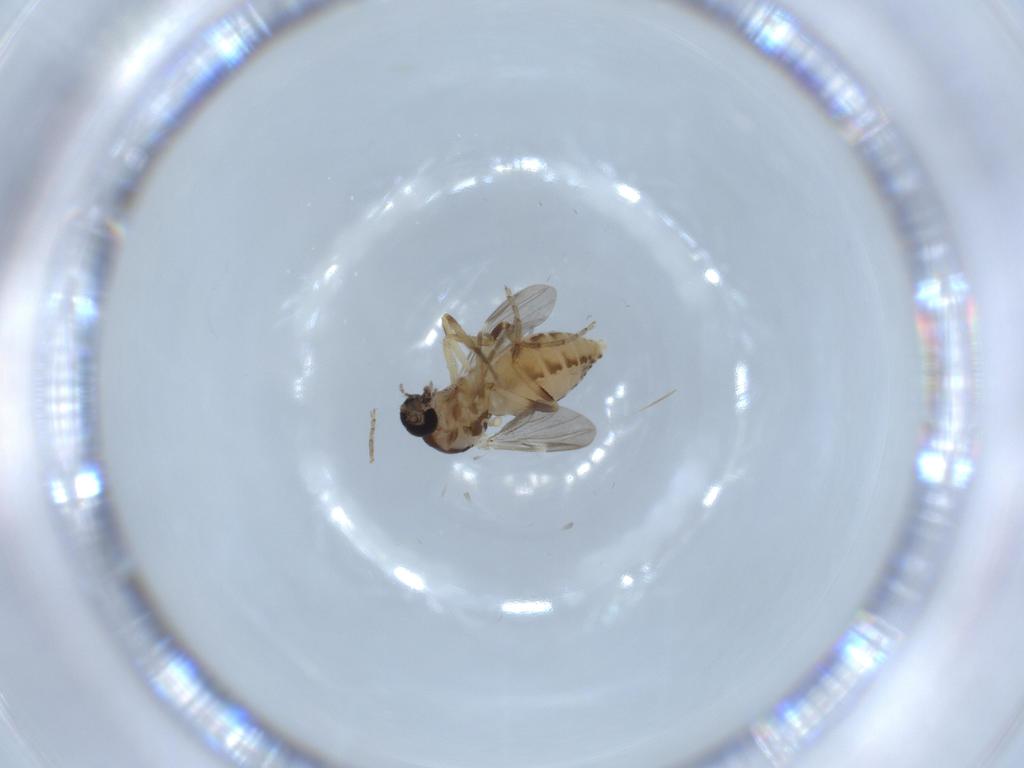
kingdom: Animalia
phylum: Arthropoda
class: Insecta
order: Diptera
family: Ceratopogonidae
